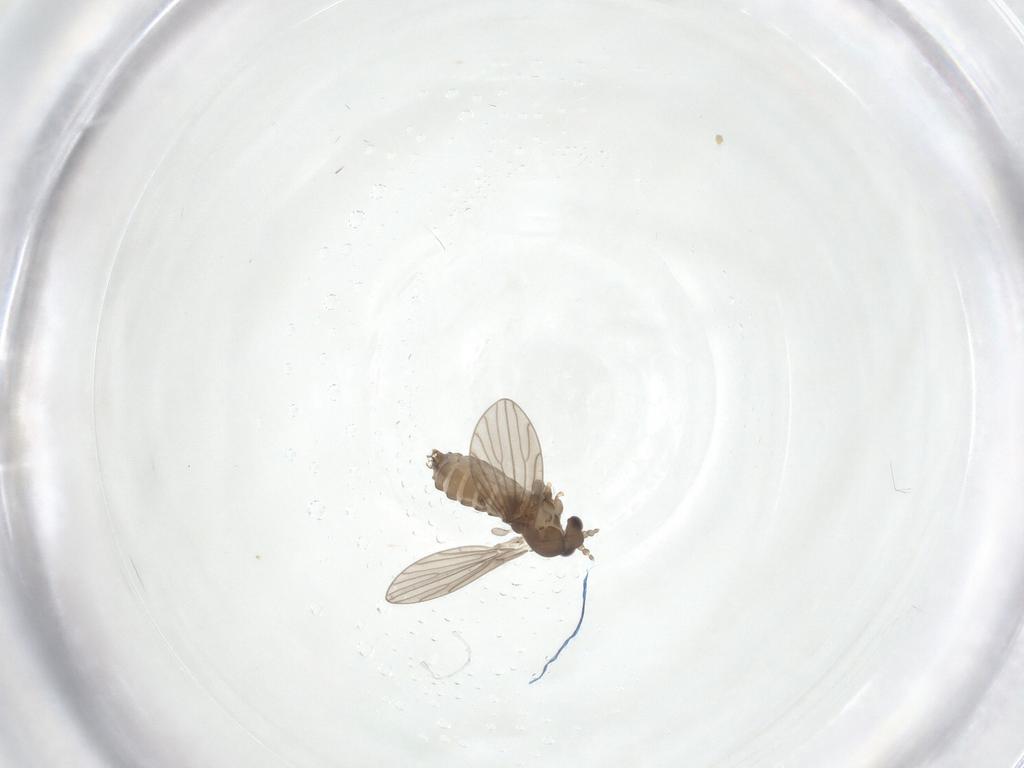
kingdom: Animalia
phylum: Arthropoda
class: Insecta
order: Diptera
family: Psychodidae
